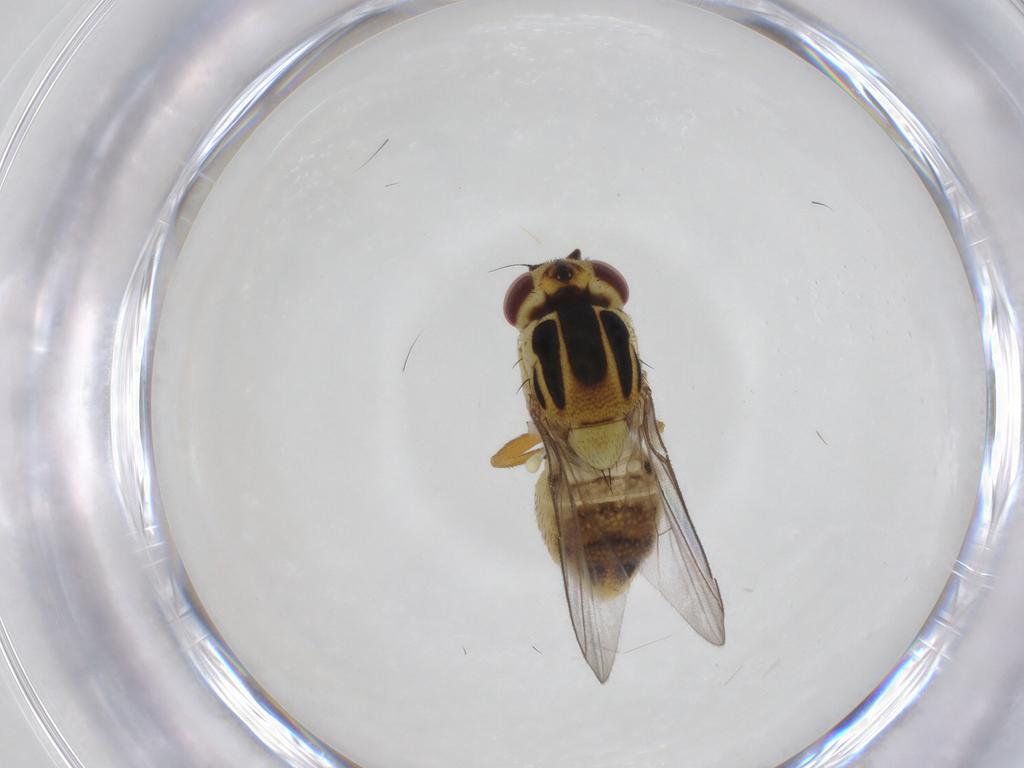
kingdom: Animalia
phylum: Arthropoda
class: Insecta
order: Diptera
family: Chloropidae
